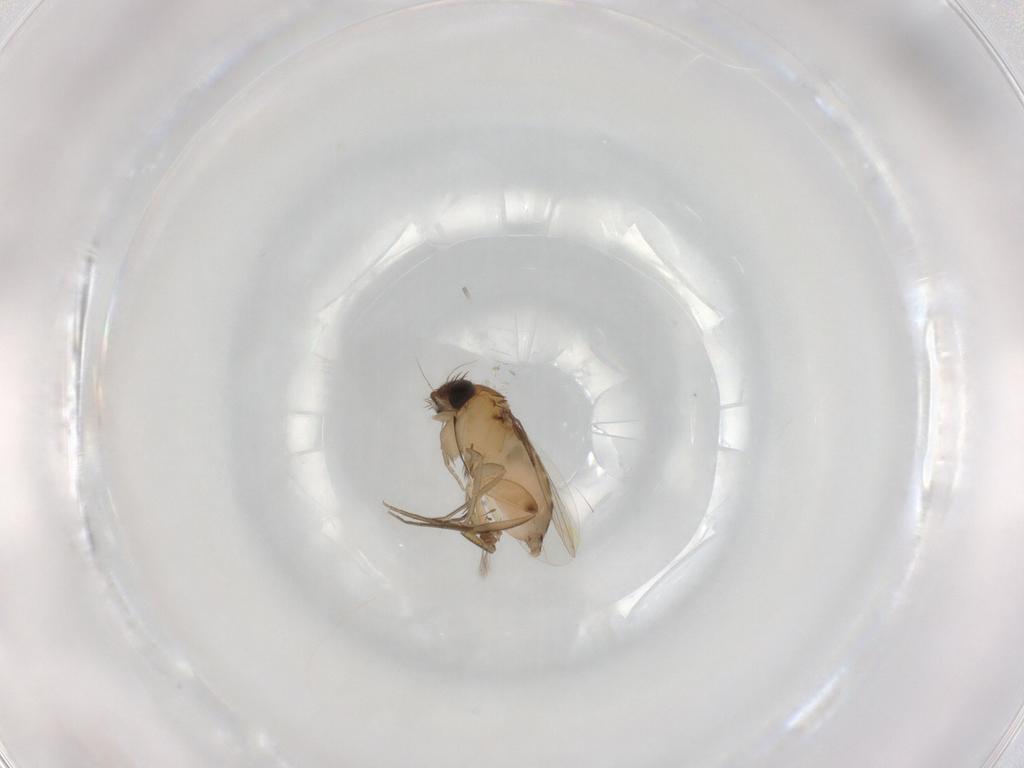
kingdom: Animalia
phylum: Arthropoda
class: Insecta
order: Diptera
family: Phoridae
